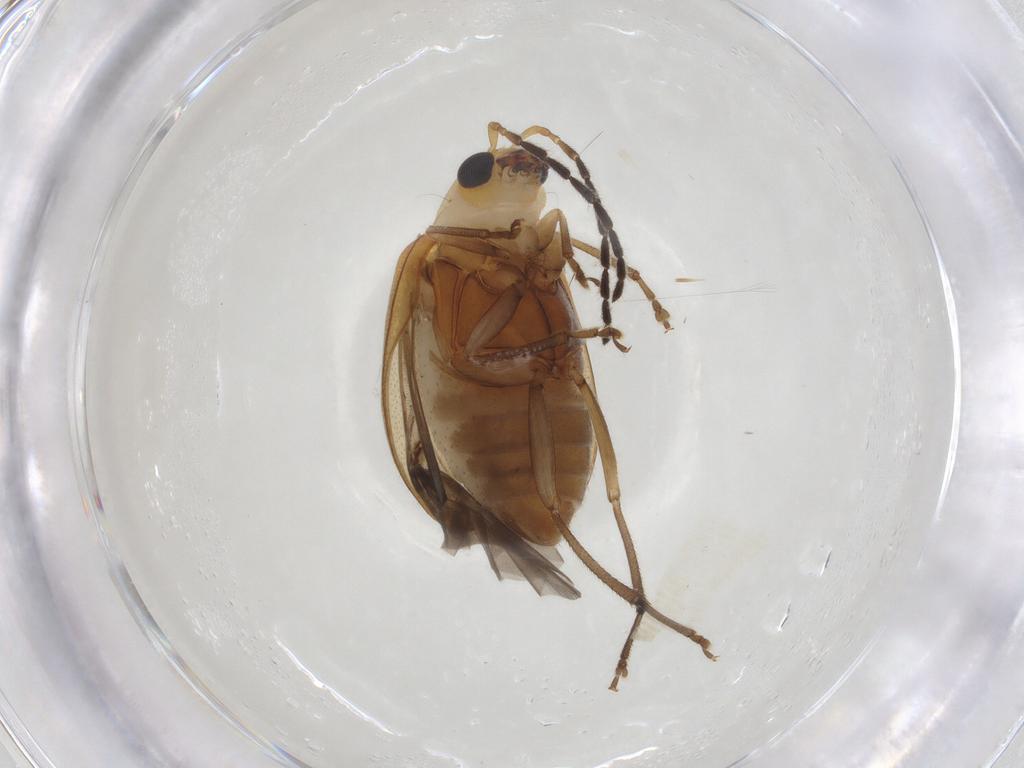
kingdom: Animalia
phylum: Arthropoda
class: Insecta
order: Coleoptera
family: Chrysomelidae
